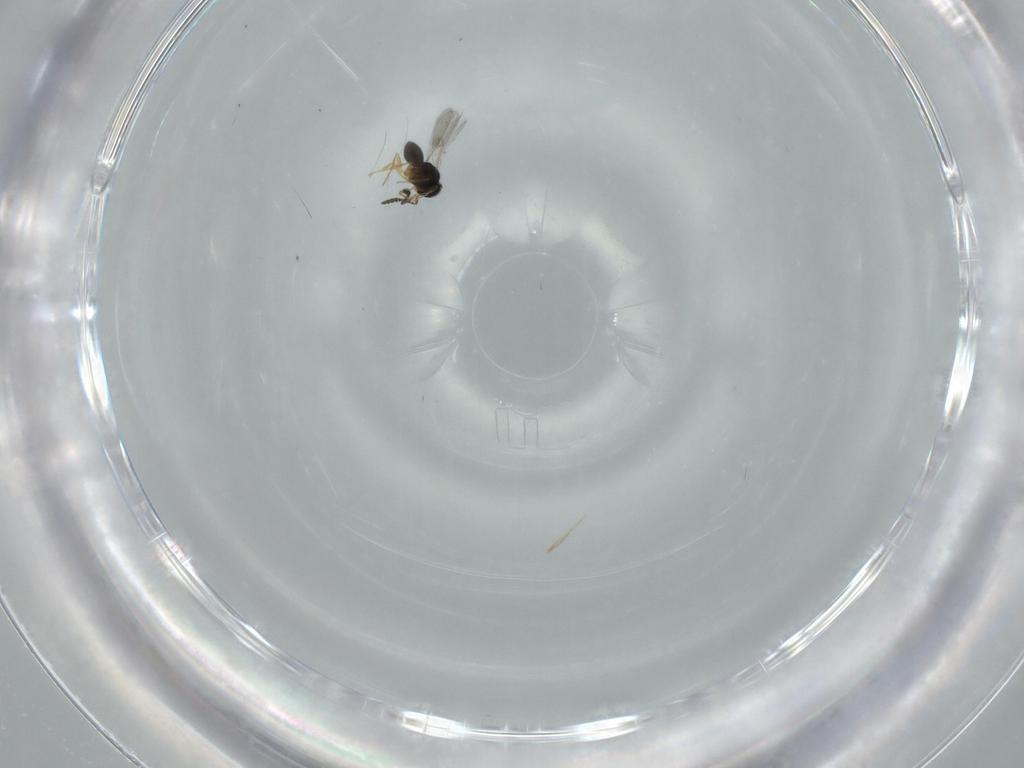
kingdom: Animalia
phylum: Arthropoda
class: Insecta
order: Hymenoptera
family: Scelionidae
